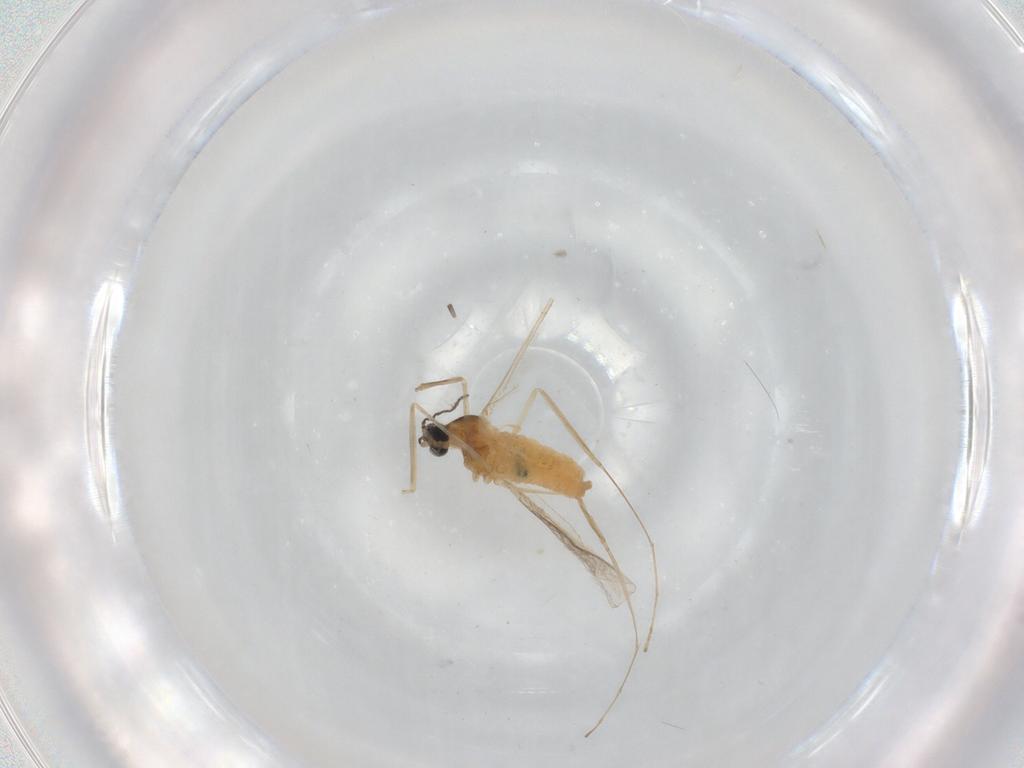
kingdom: Animalia
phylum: Arthropoda
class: Insecta
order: Diptera
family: Cecidomyiidae
